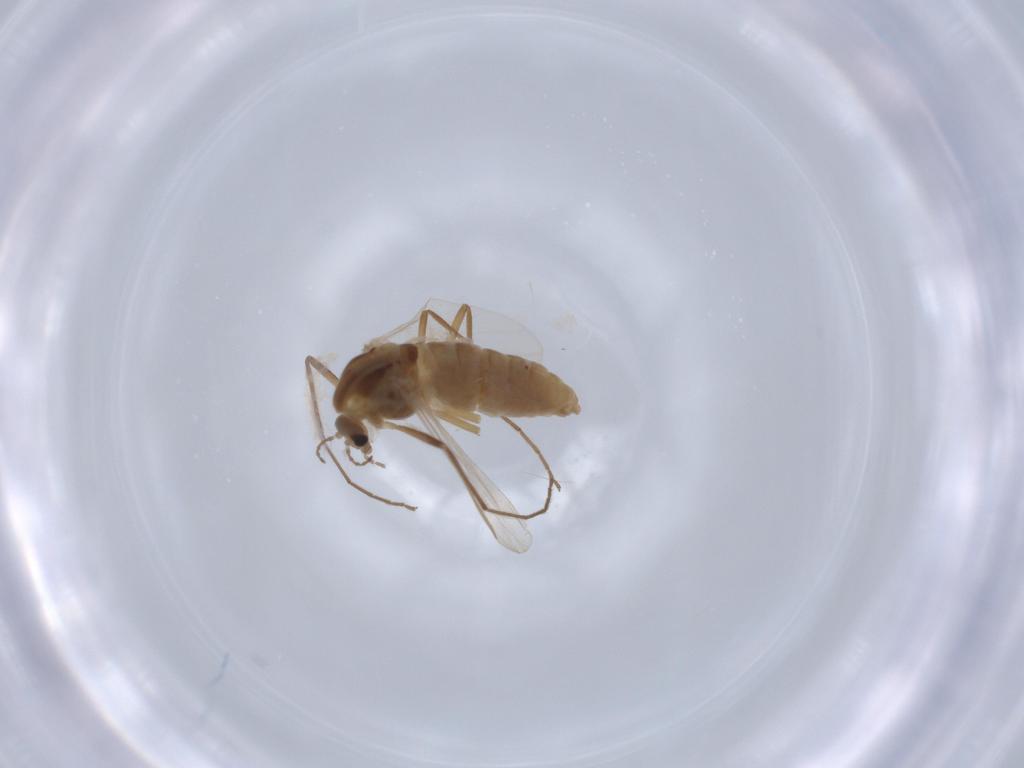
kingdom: Animalia
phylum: Arthropoda
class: Insecta
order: Diptera
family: Chironomidae
